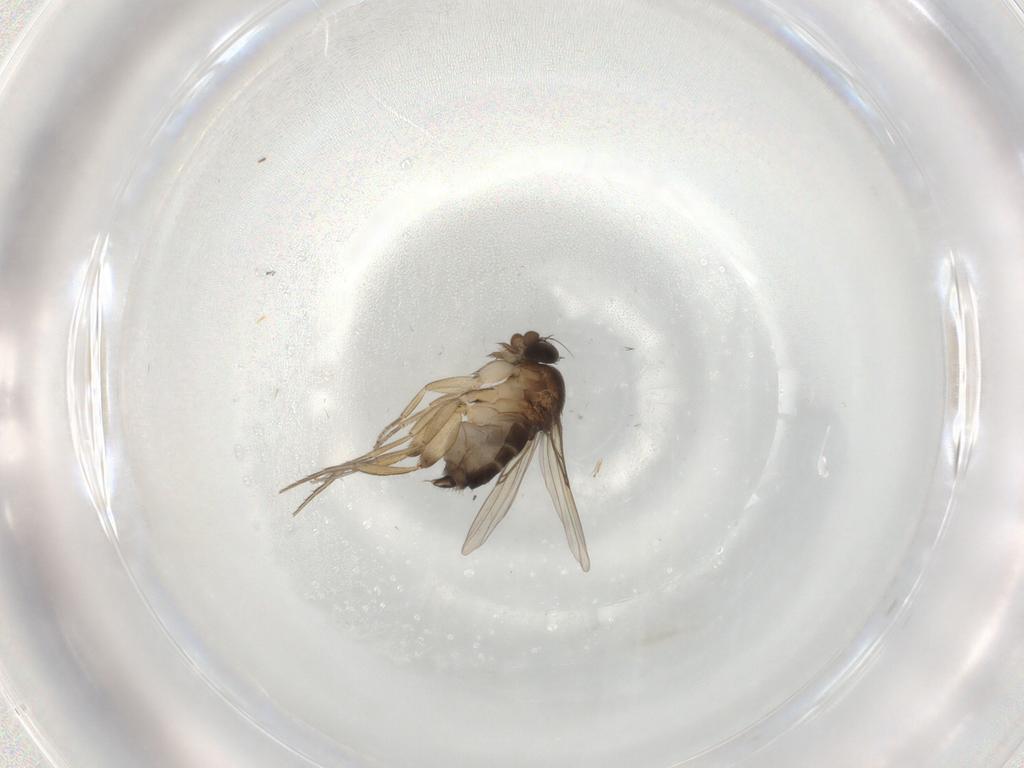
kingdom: Animalia
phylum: Arthropoda
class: Insecta
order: Diptera
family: Phoridae
